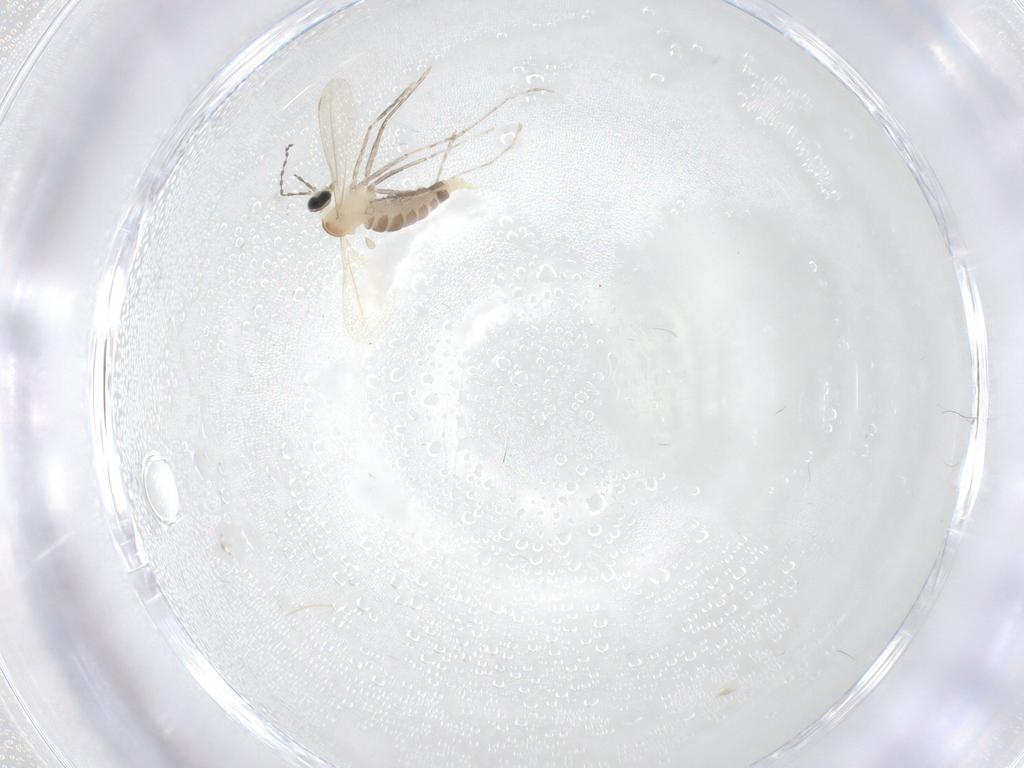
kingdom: Animalia
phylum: Arthropoda
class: Insecta
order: Diptera
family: Cecidomyiidae
